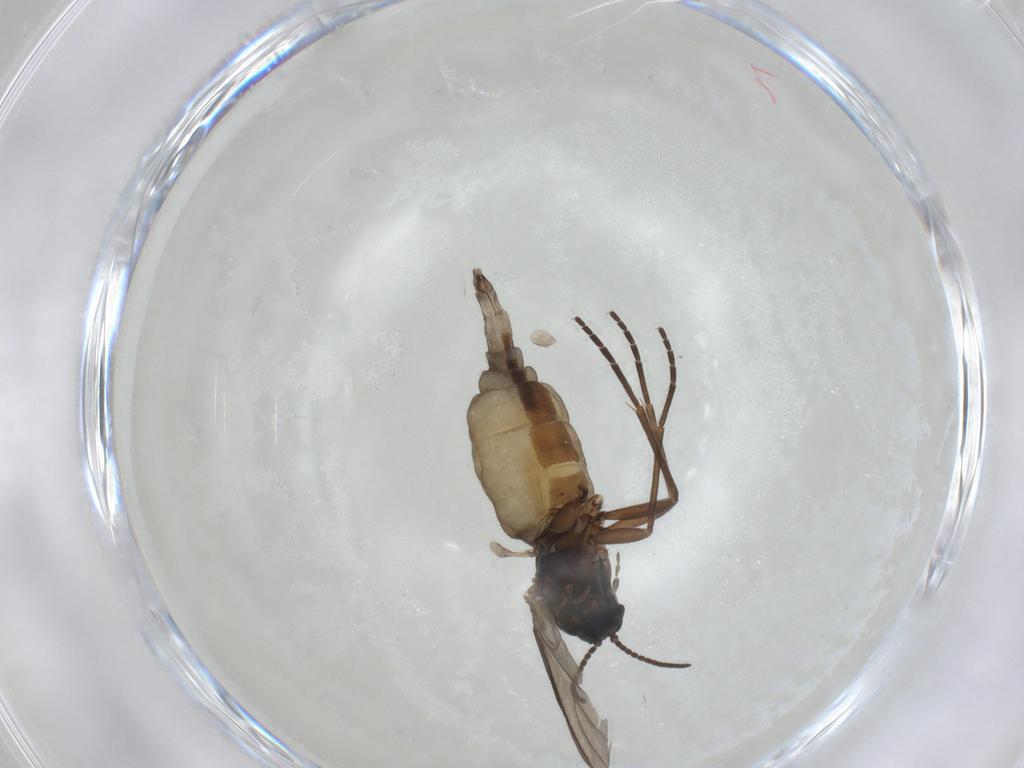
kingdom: Animalia
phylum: Arthropoda
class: Insecta
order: Diptera
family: Sciaridae
